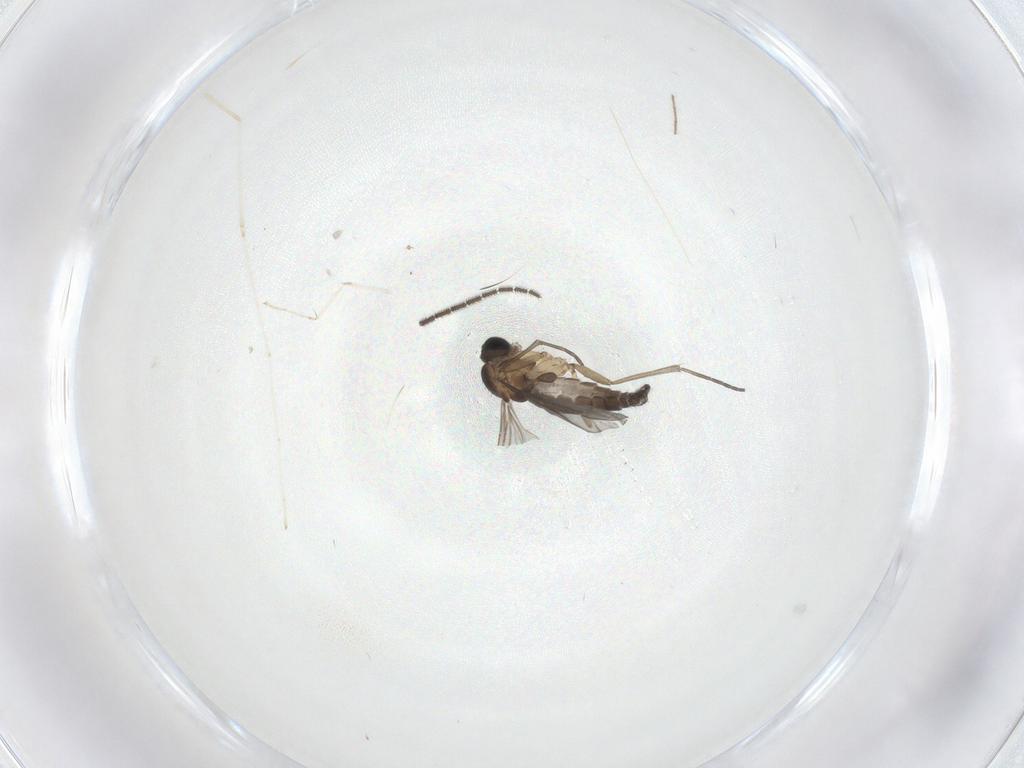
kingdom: Animalia
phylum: Arthropoda
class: Insecta
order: Diptera
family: Sciaridae
